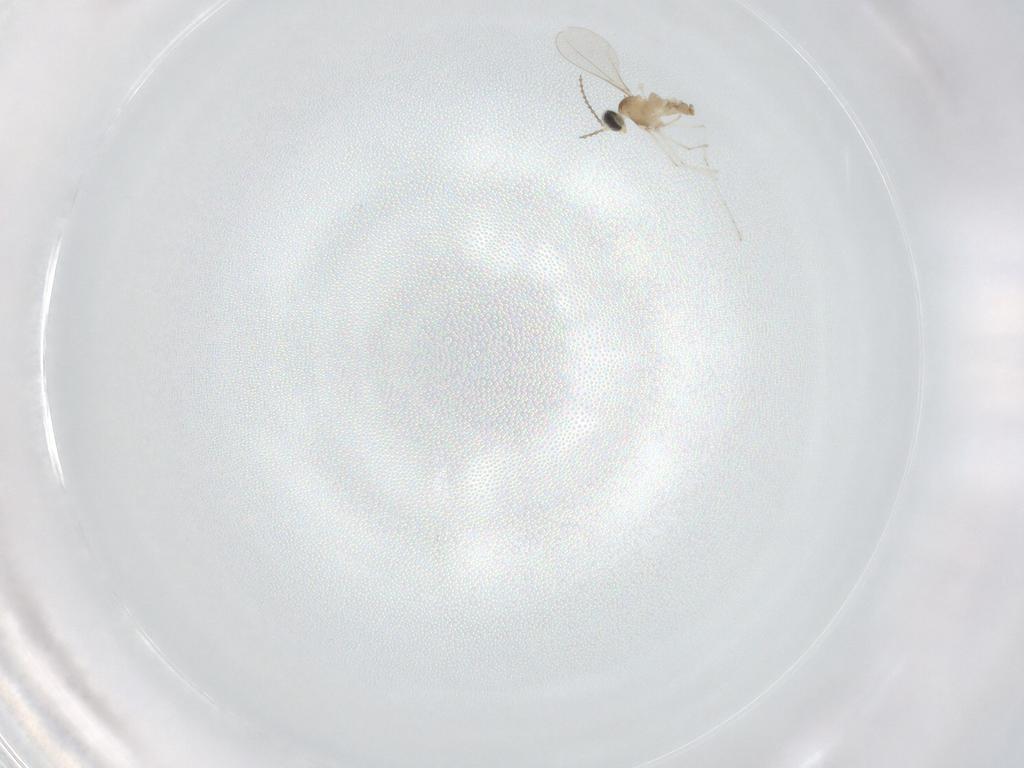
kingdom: Animalia
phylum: Arthropoda
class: Insecta
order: Diptera
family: Cecidomyiidae
